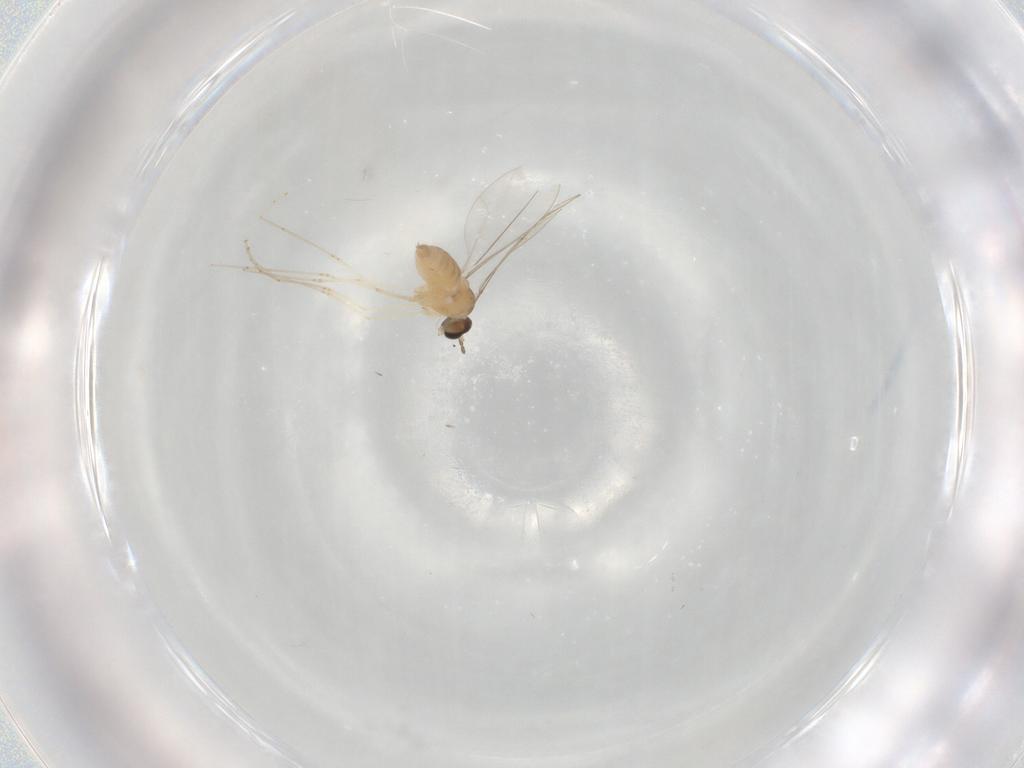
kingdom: Animalia
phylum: Arthropoda
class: Insecta
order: Diptera
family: Cecidomyiidae
